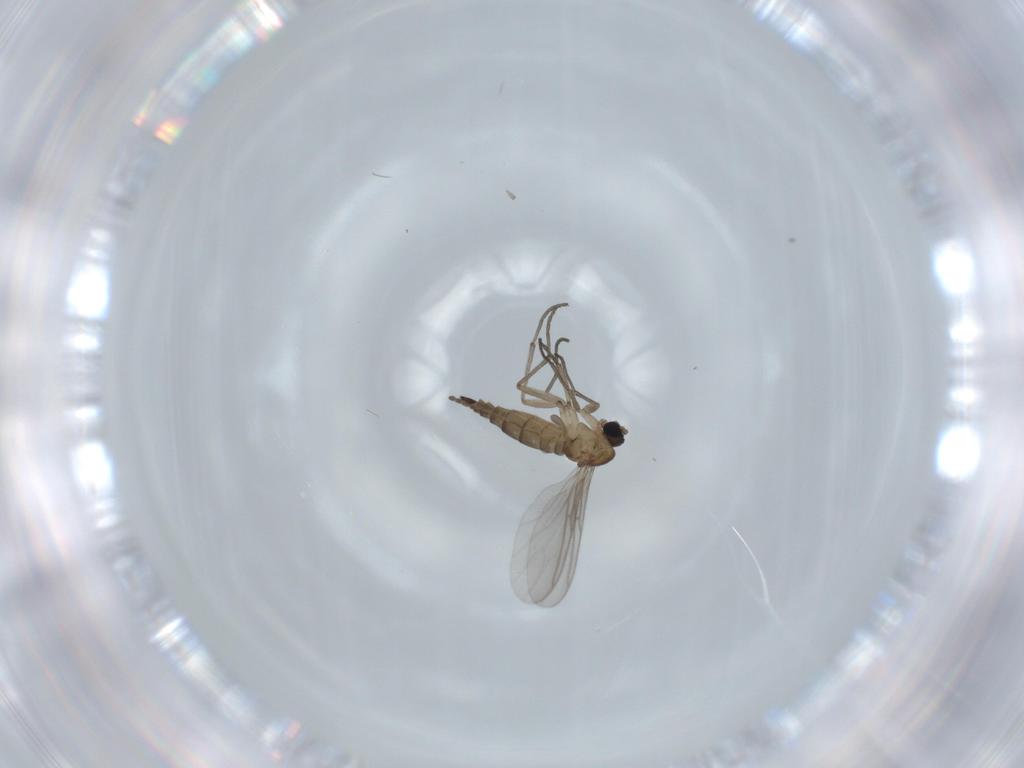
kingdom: Animalia
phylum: Arthropoda
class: Insecta
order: Diptera
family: Sciaridae
